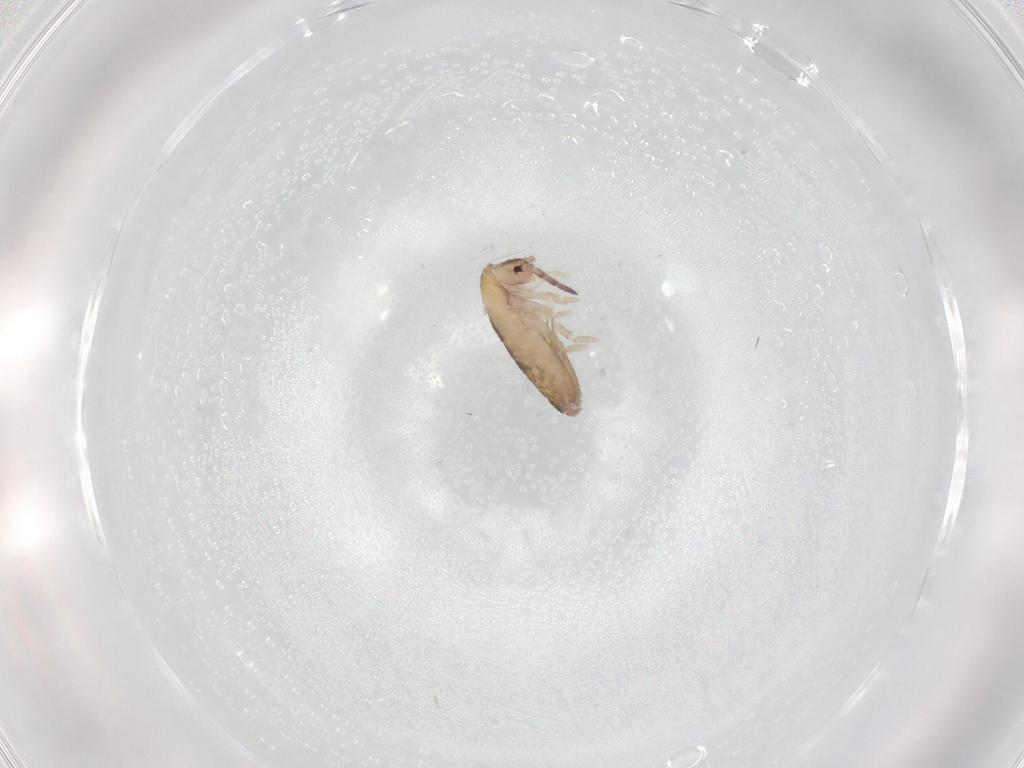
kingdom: Animalia
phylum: Arthropoda
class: Collembola
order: Entomobryomorpha
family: Entomobryidae
